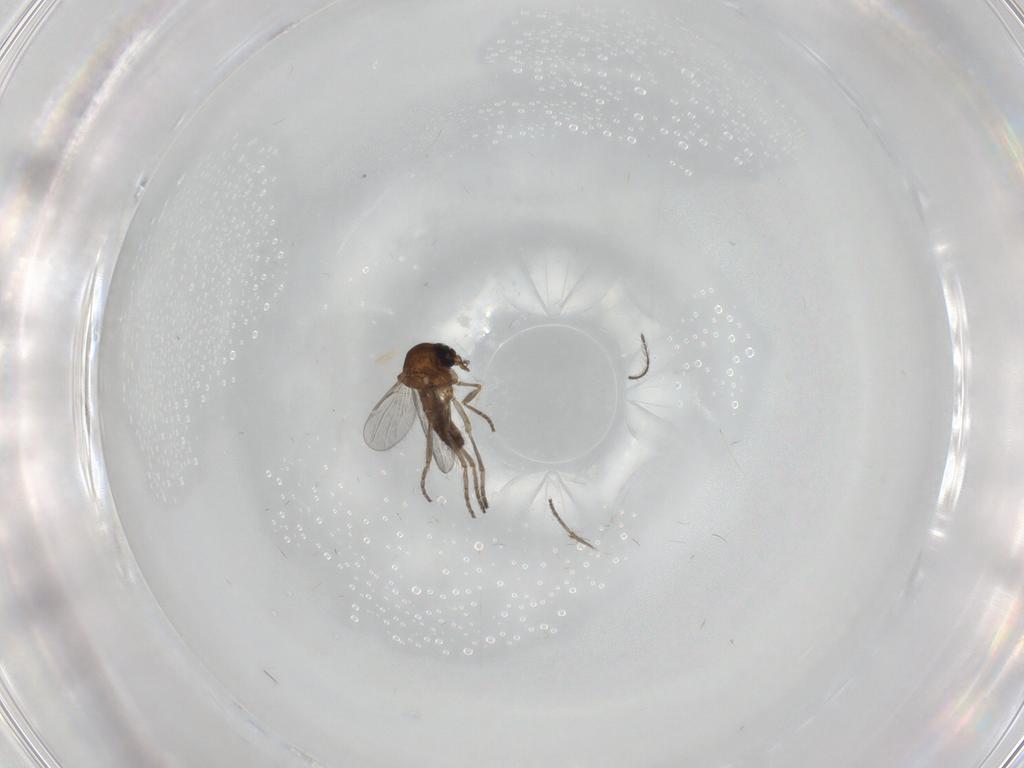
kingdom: Animalia
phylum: Arthropoda
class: Insecta
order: Diptera
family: Ceratopogonidae
